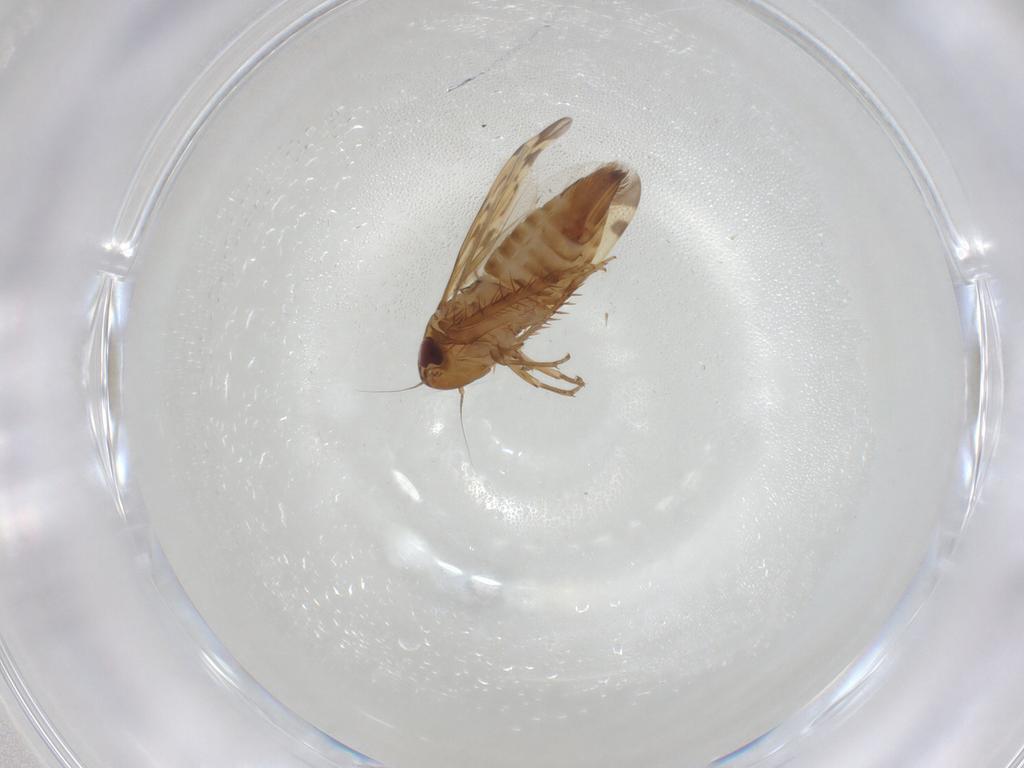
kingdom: Animalia
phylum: Arthropoda
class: Insecta
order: Hemiptera
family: Cicadellidae
